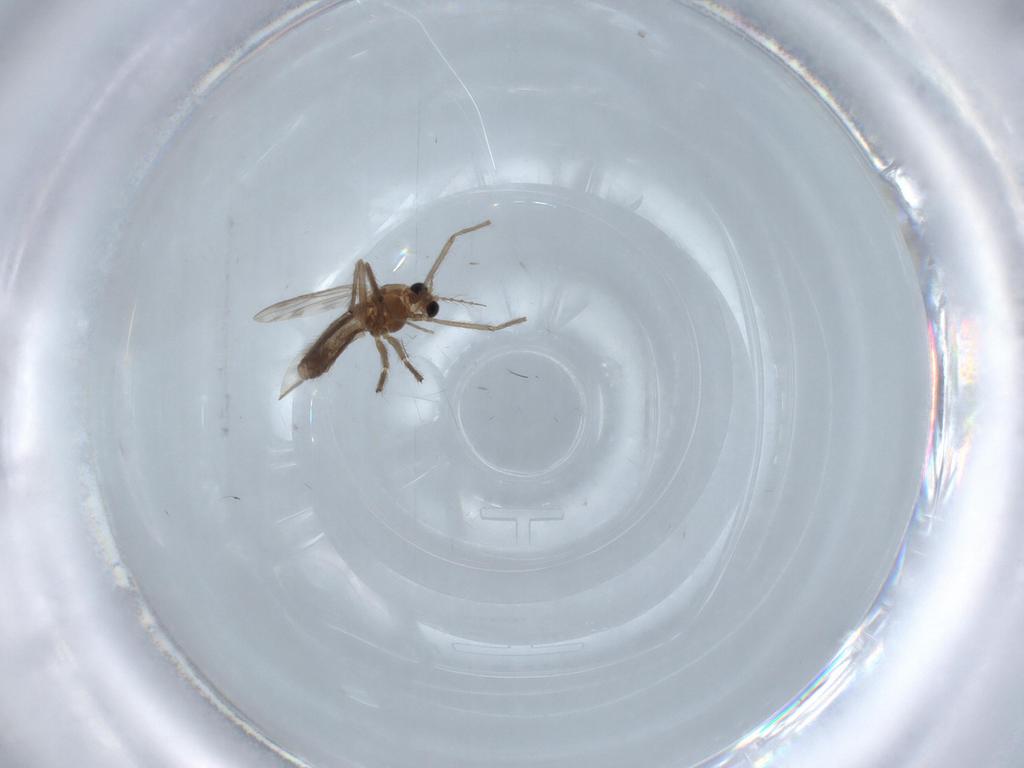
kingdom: Animalia
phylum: Arthropoda
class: Insecta
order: Diptera
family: Chironomidae
